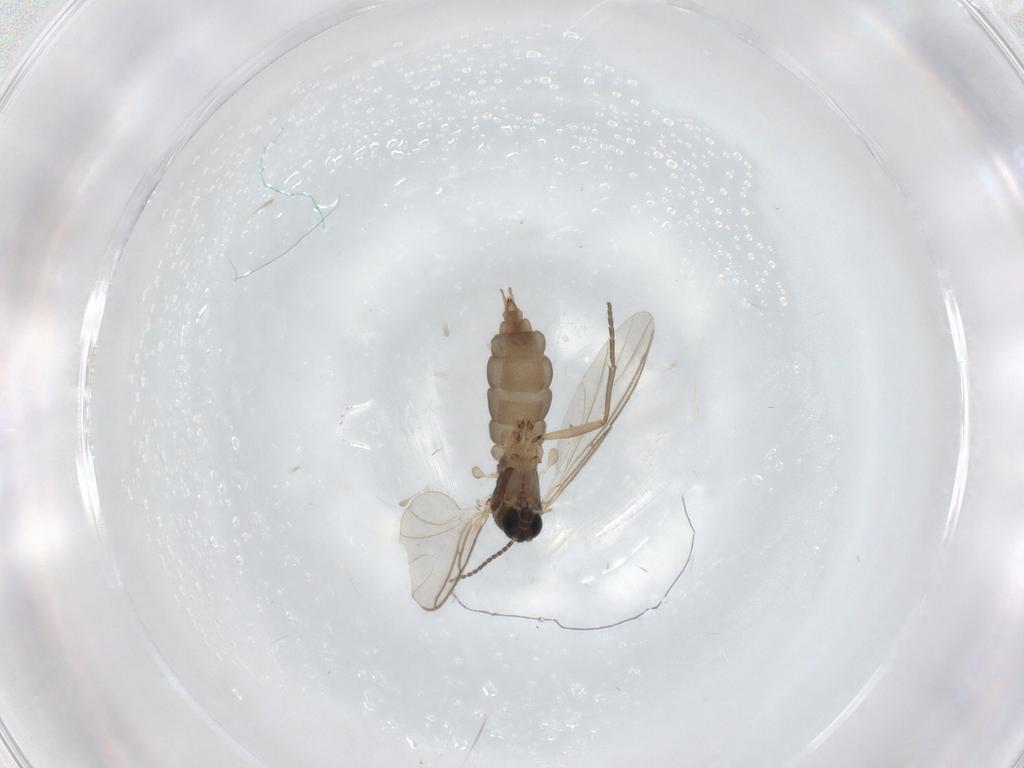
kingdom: Animalia
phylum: Arthropoda
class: Insecta
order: Diptera
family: Sciaridae
